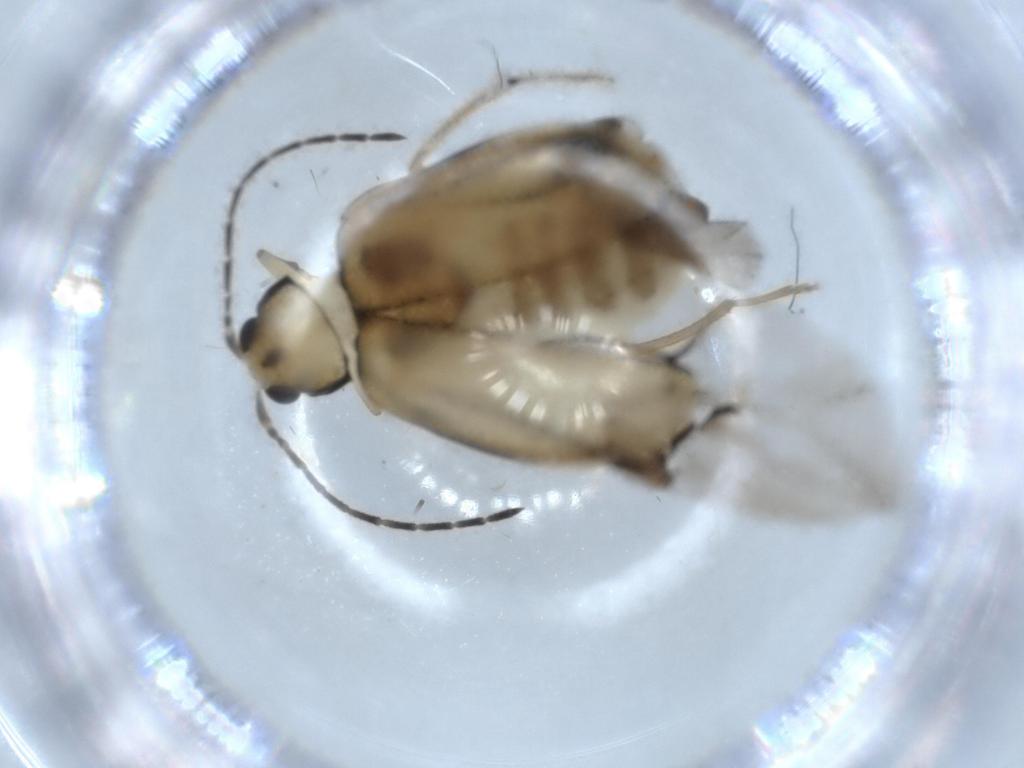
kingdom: Animalia
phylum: Arthropoda
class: Insecta
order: Coleoptera
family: Chrysomelidae
